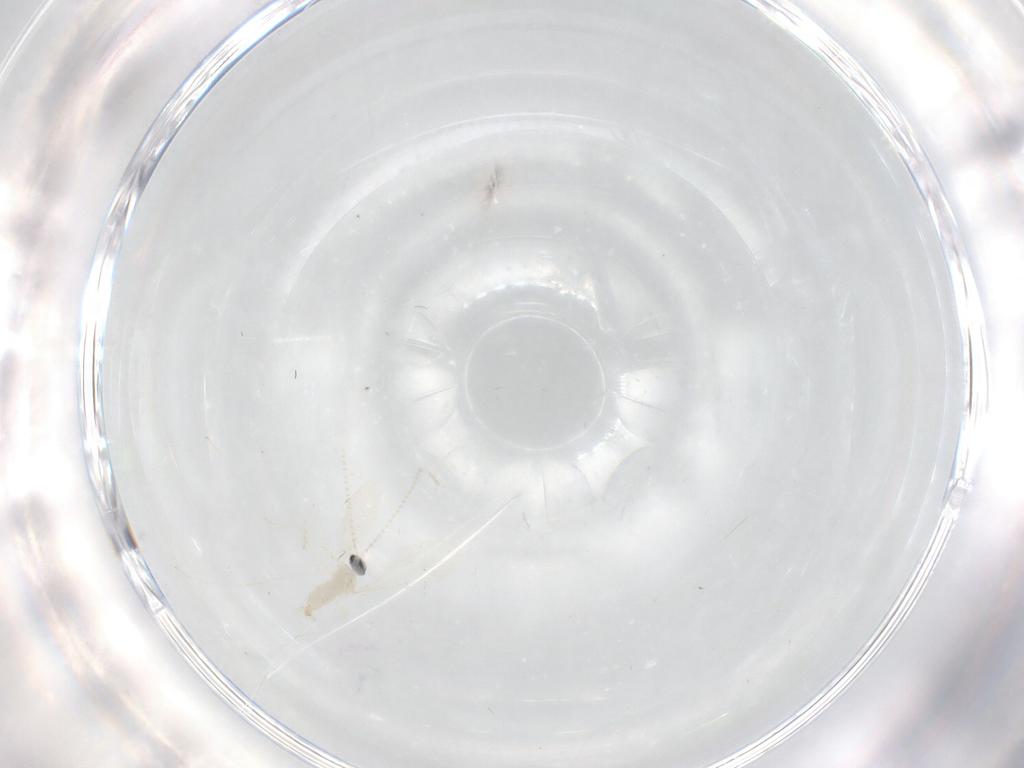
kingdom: Animalia
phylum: Arthropoda
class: Insecta
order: Diptera
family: Cecidomyiidae
